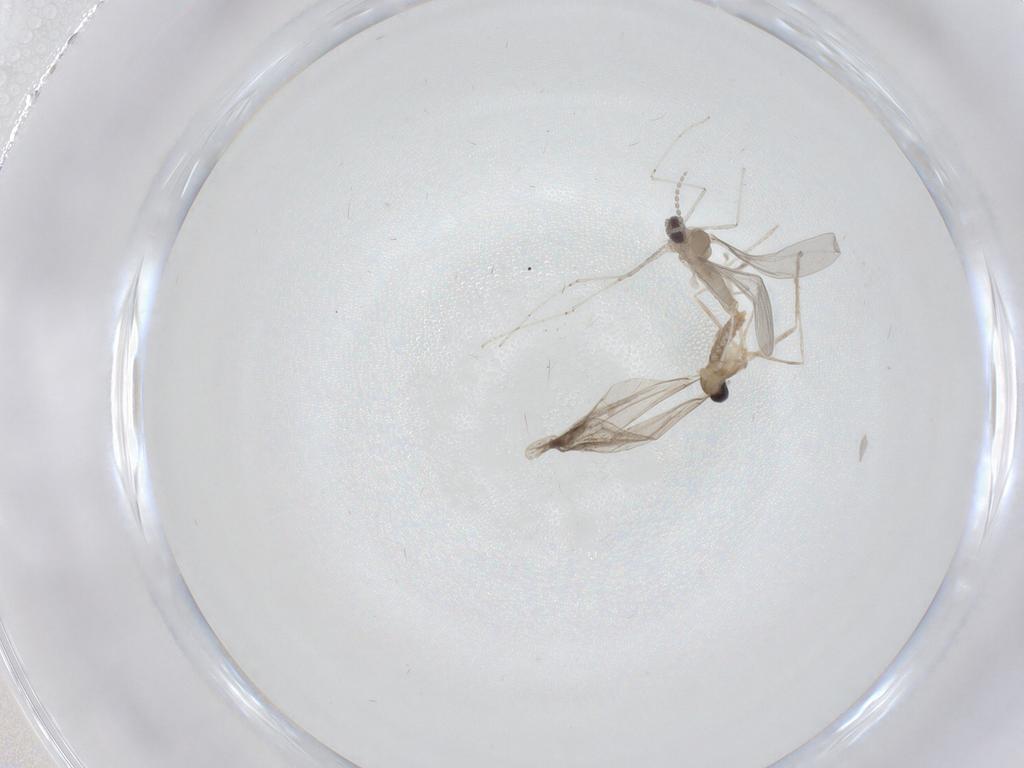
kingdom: Animalia
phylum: Arthropoda
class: Insecta
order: Diptera
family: Cecidomyiidae
